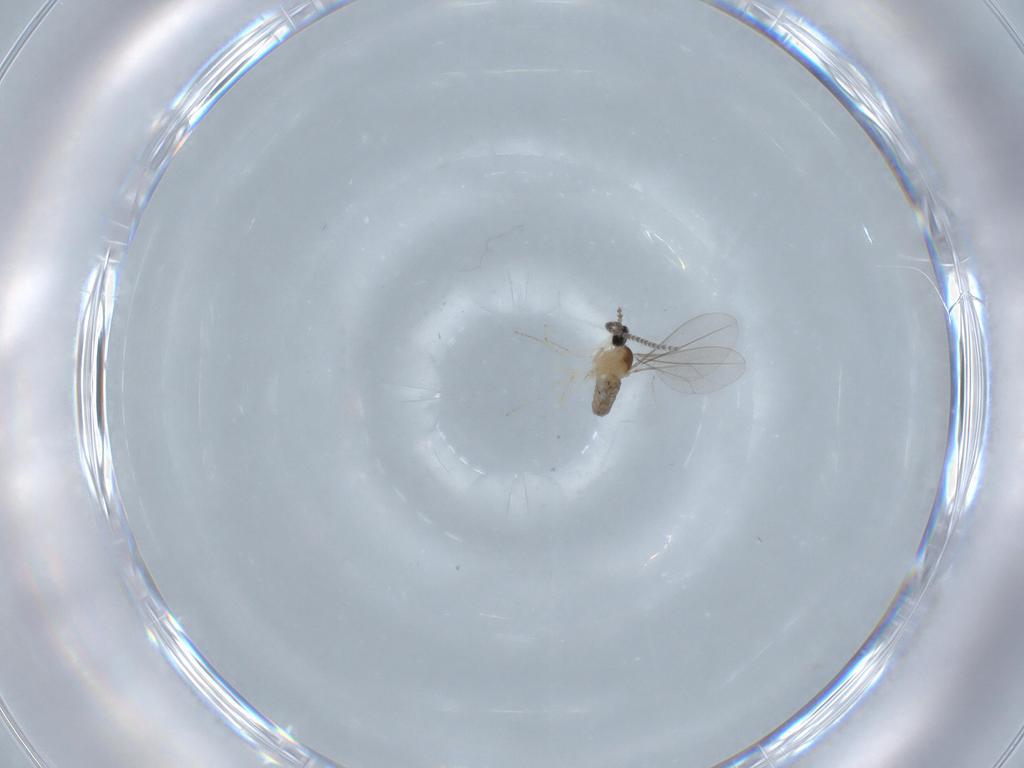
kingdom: Animalia
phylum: Arthropoda
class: Insecta
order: Diptera
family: Cecidomyiidae
